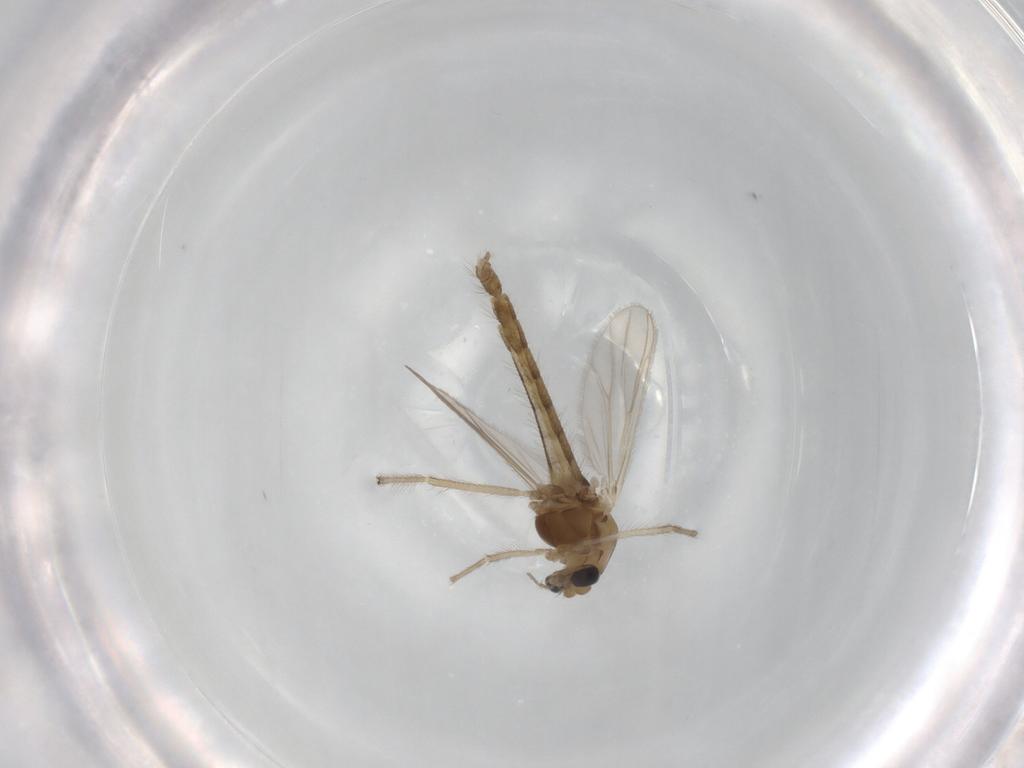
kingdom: Animalia
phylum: Arthropoda
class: Insecta
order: Diptera
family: Chironomidae
